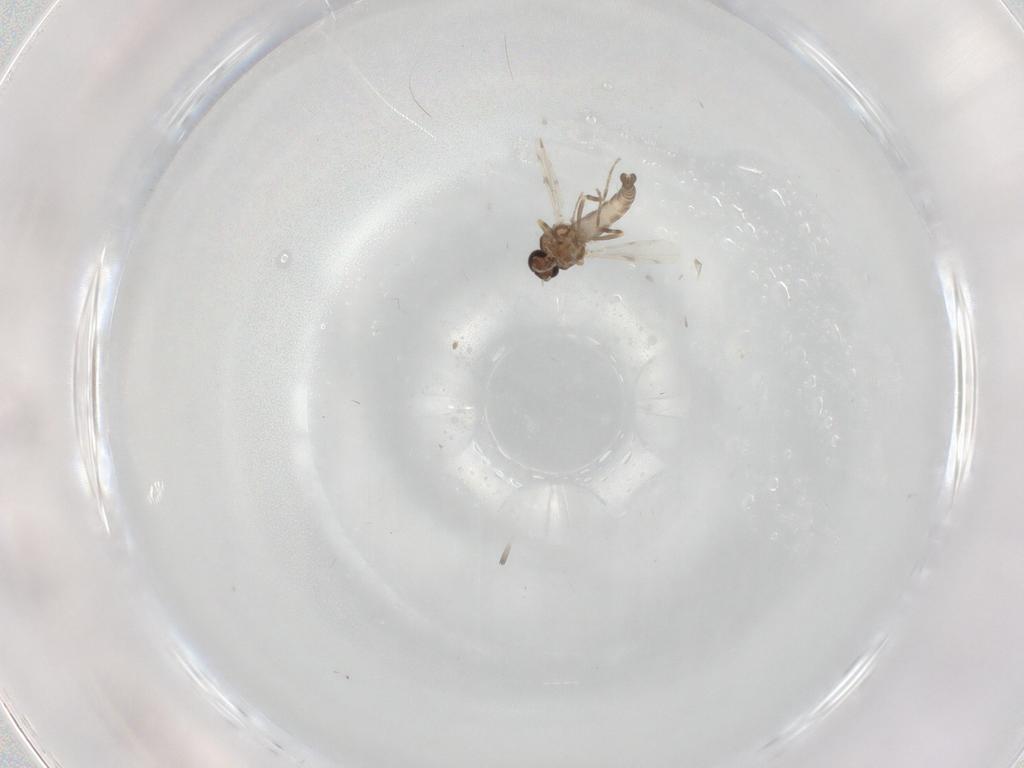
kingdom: Animalia
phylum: Arthropoda
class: Insecta
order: Diptera
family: Ceratopogonidae
